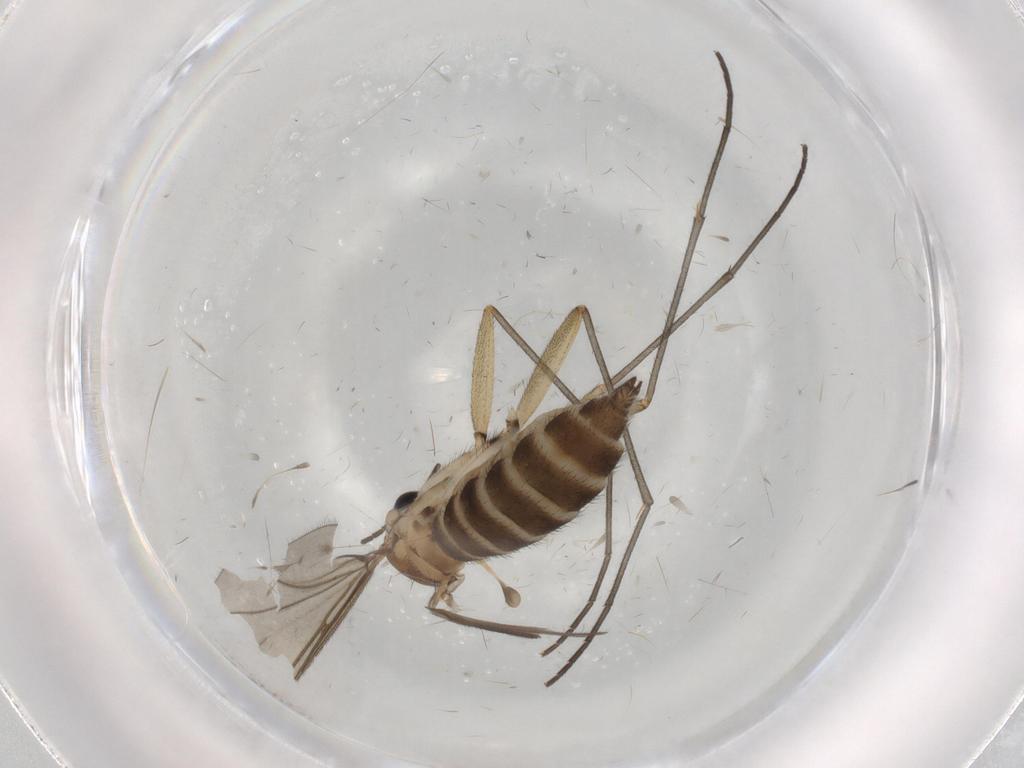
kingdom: Animalia
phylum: Arthropoda
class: Insecta
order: Diptera
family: Sciaridae
